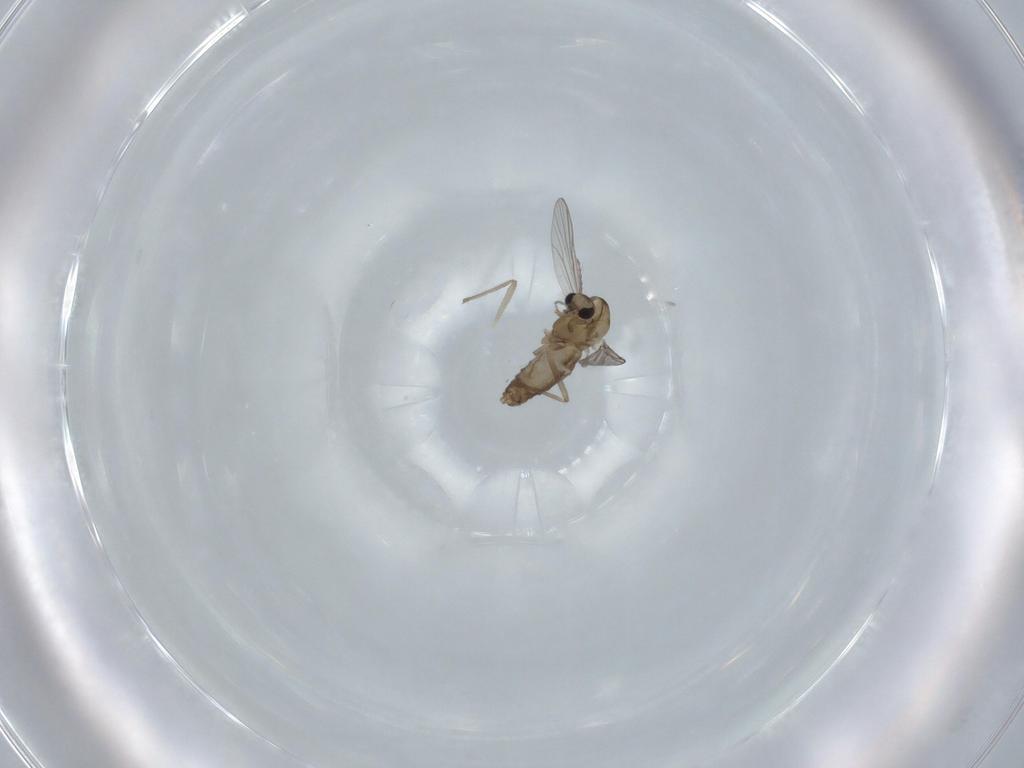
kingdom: Animalia
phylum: Arthropoda
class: Insecta
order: Diptera
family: Chironomidae
